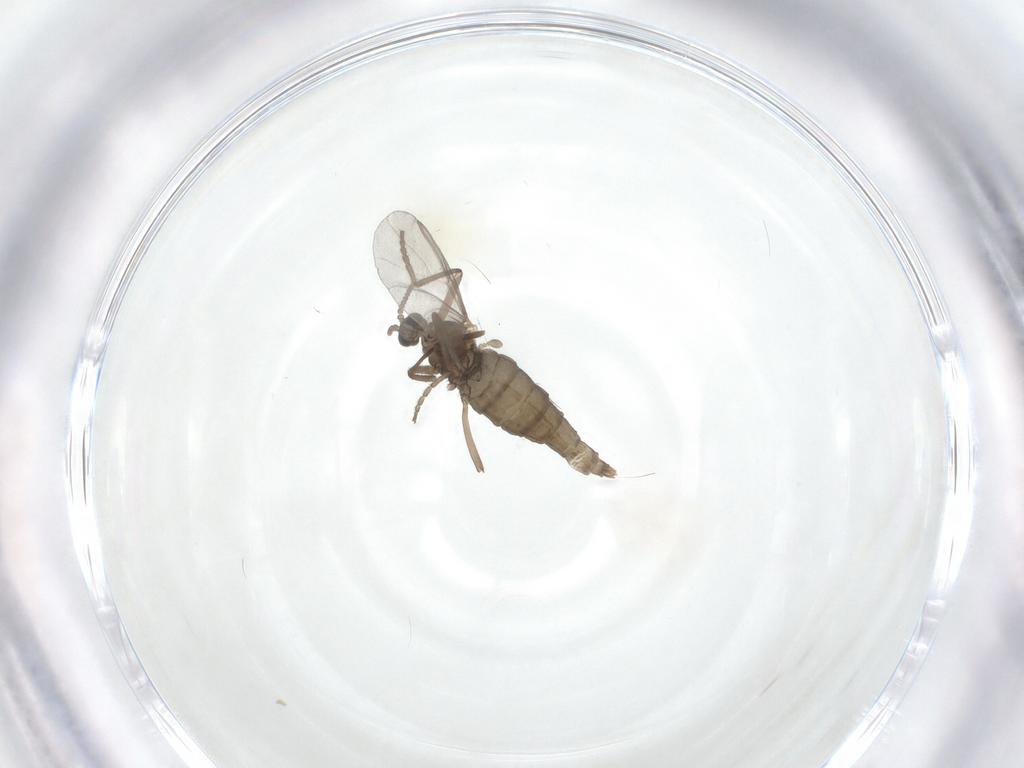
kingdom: Animalia
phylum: Arthropoda
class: Insecta
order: Diptera
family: Cecidomyiidae
